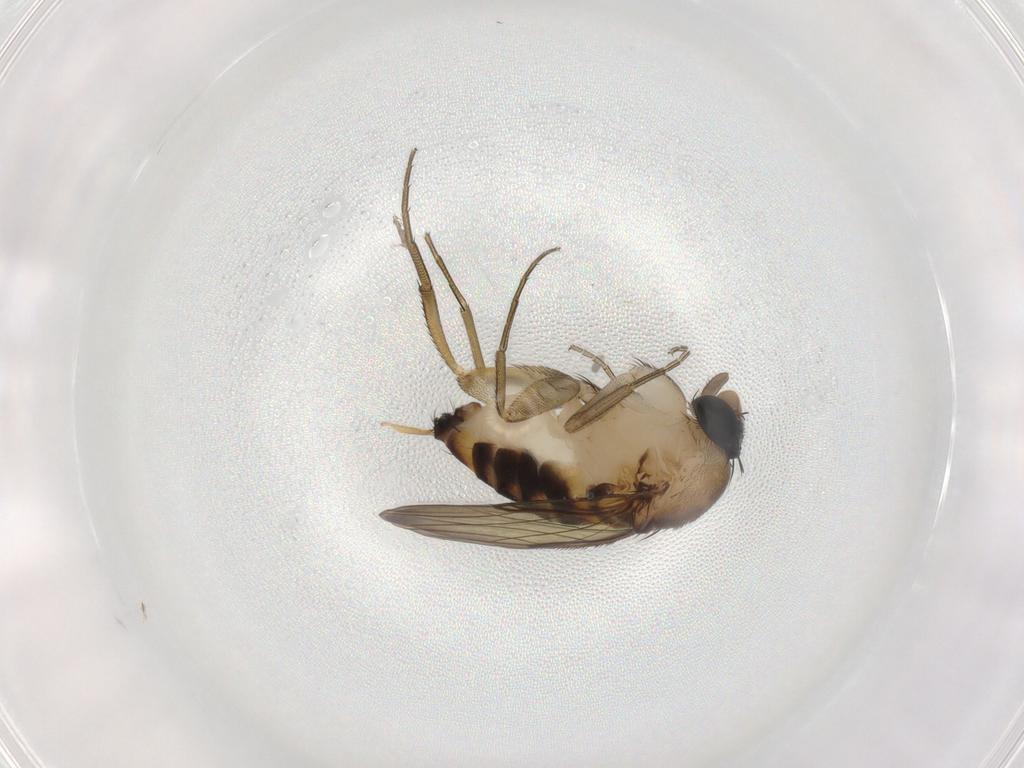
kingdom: Animalia
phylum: Arthropoda
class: Insecta
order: Diptera
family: Phoridae
